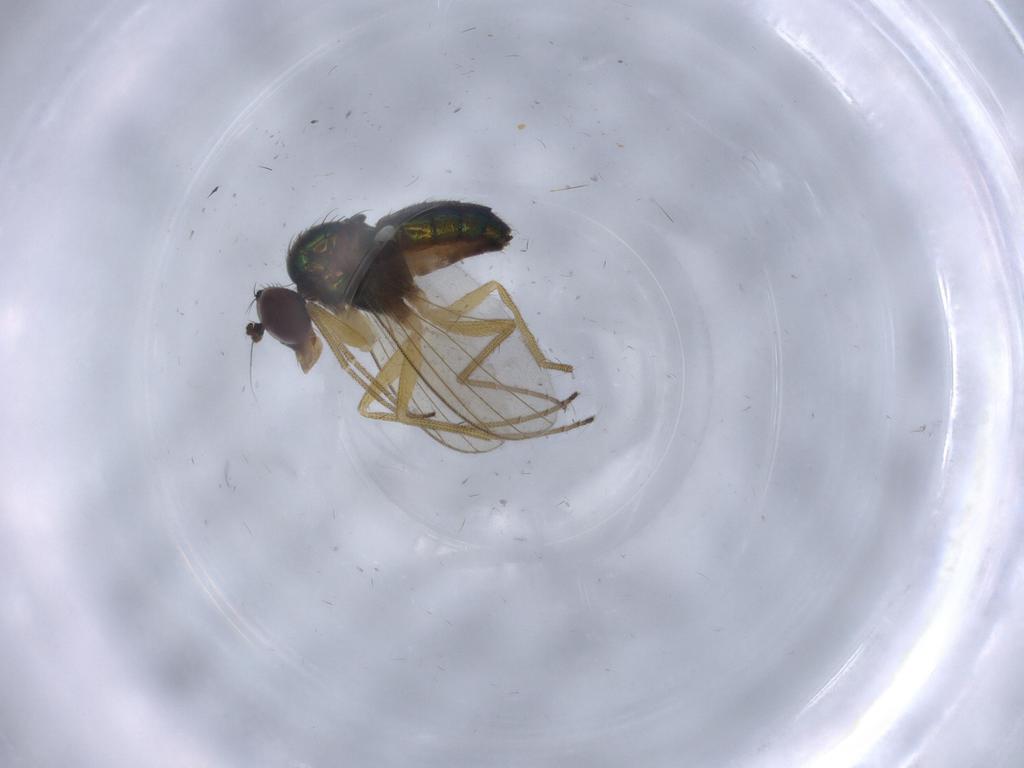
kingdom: Animalia
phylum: Arthropoda
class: Insecta
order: Diptera
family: Dolichopodidae
